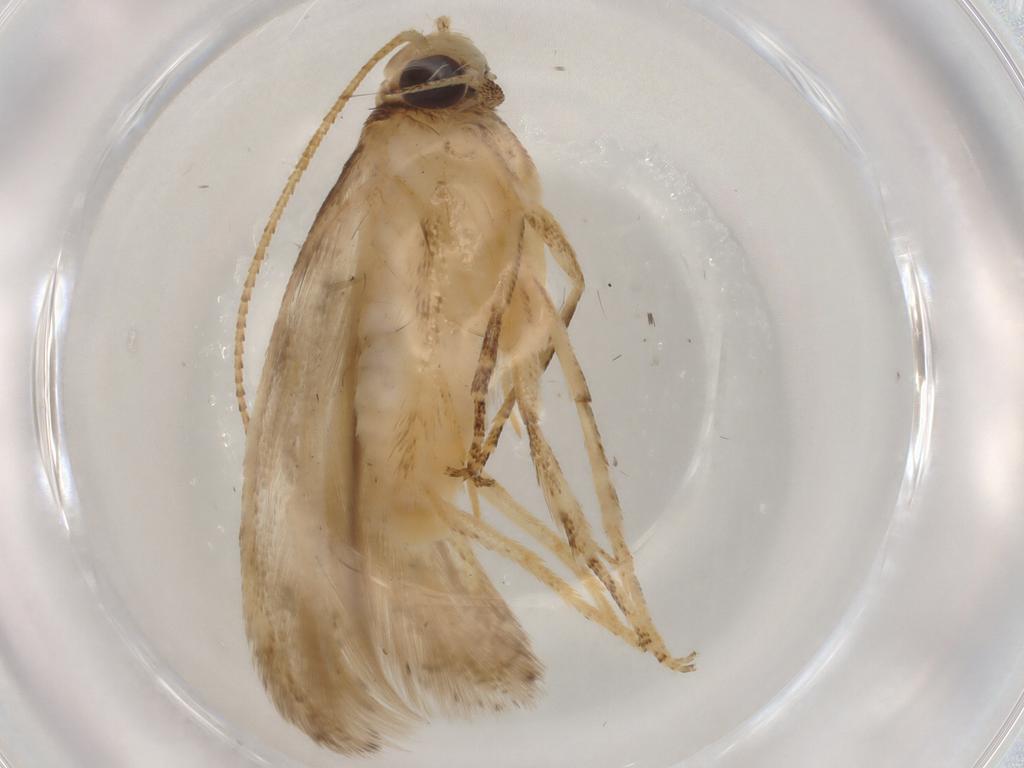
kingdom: Animalia
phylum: Arthropoda
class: Insecta
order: Lepidoptera
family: Gelechiidae
